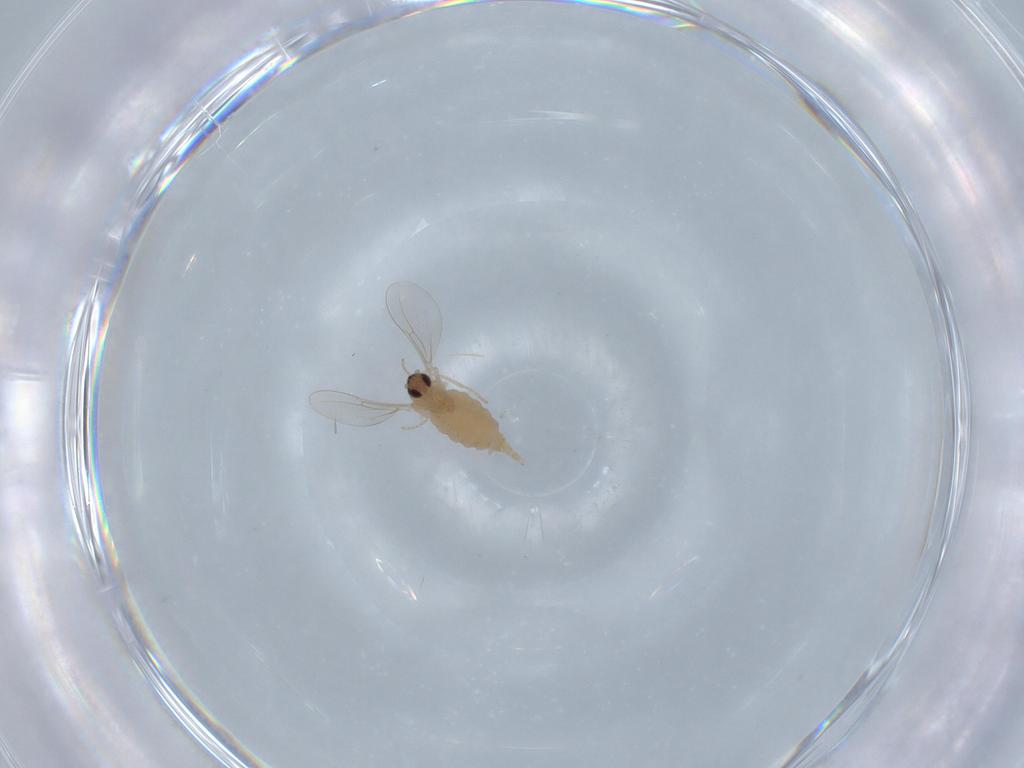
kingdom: Animalia
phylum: Arthropoda
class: Insecta
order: Diptera
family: Cecidomyiidae
